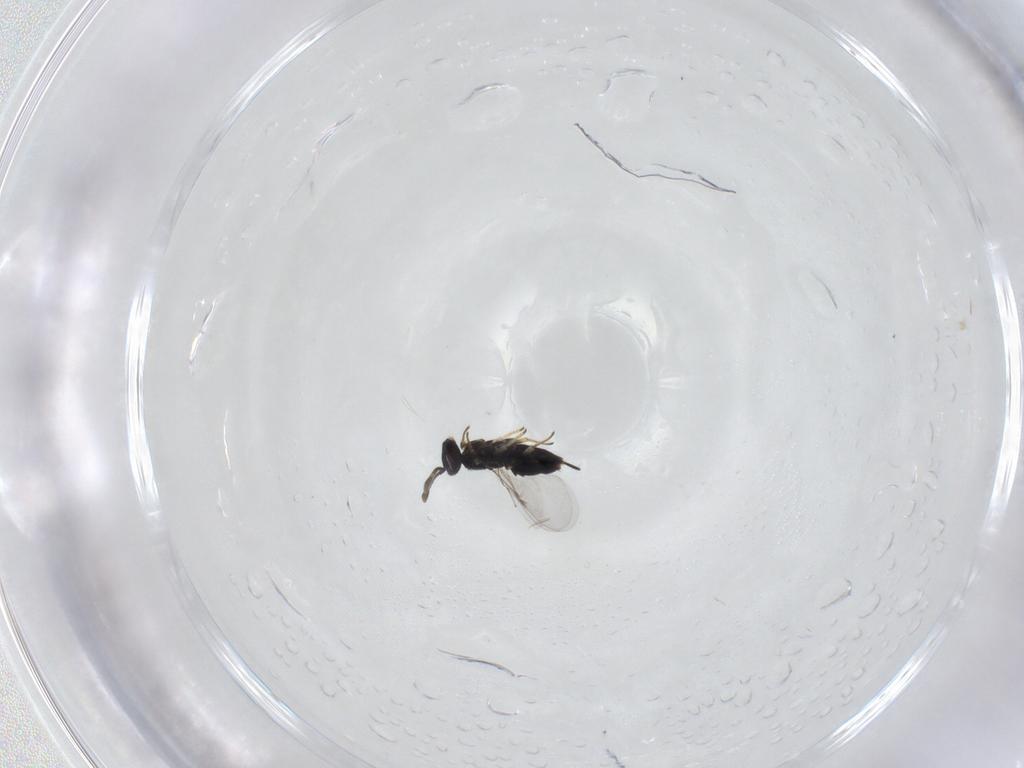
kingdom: Animalia
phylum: Arthropoda
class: Insecta
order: Hymenoptera
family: Encyrtidae
